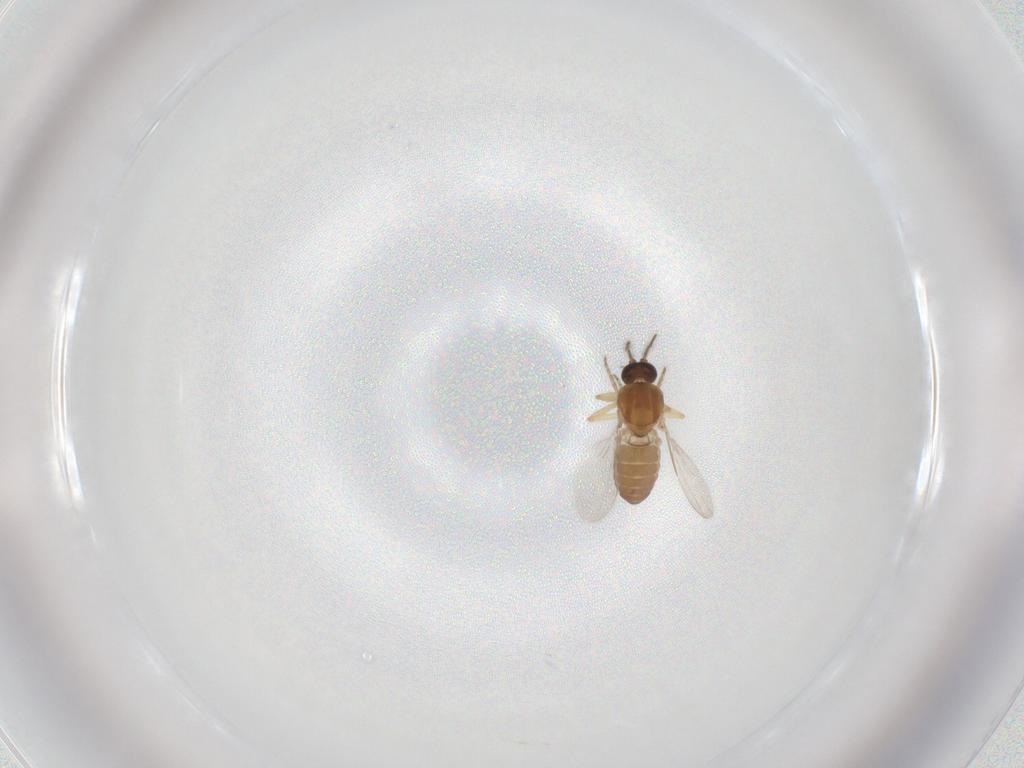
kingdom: Animalia
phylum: Arthropoda
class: Insecta
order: Diptera
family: Ceratopogonidae
